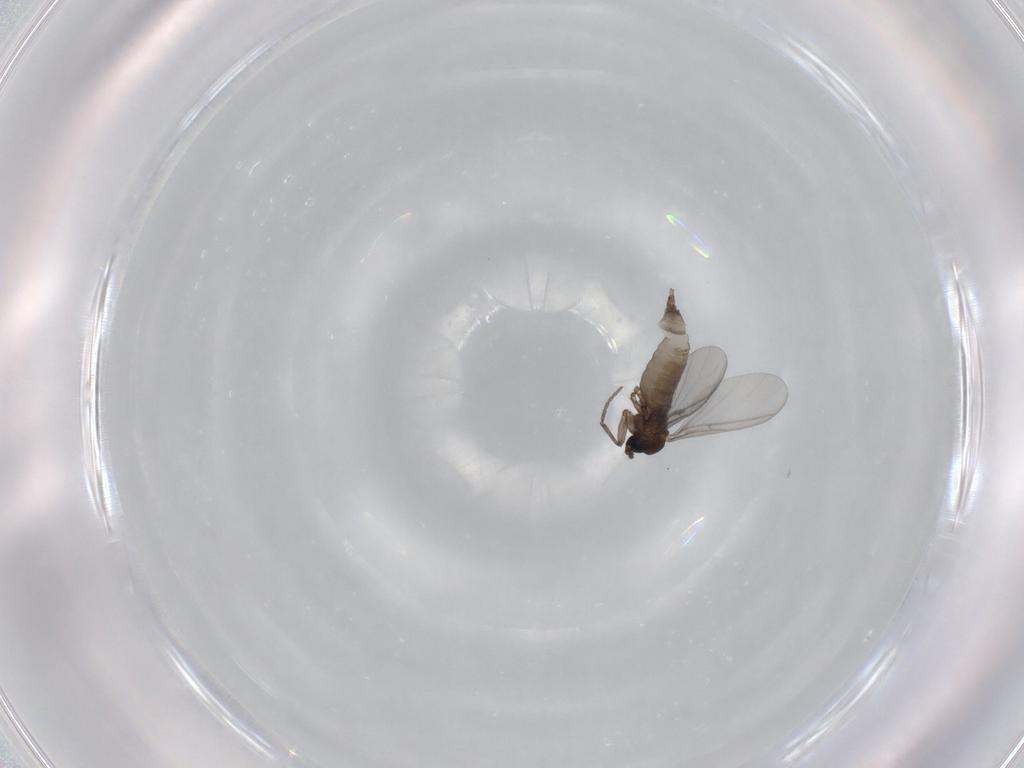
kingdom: Animalia
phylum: Arthropoda
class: Insecta
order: Diptera
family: Sciaridae
